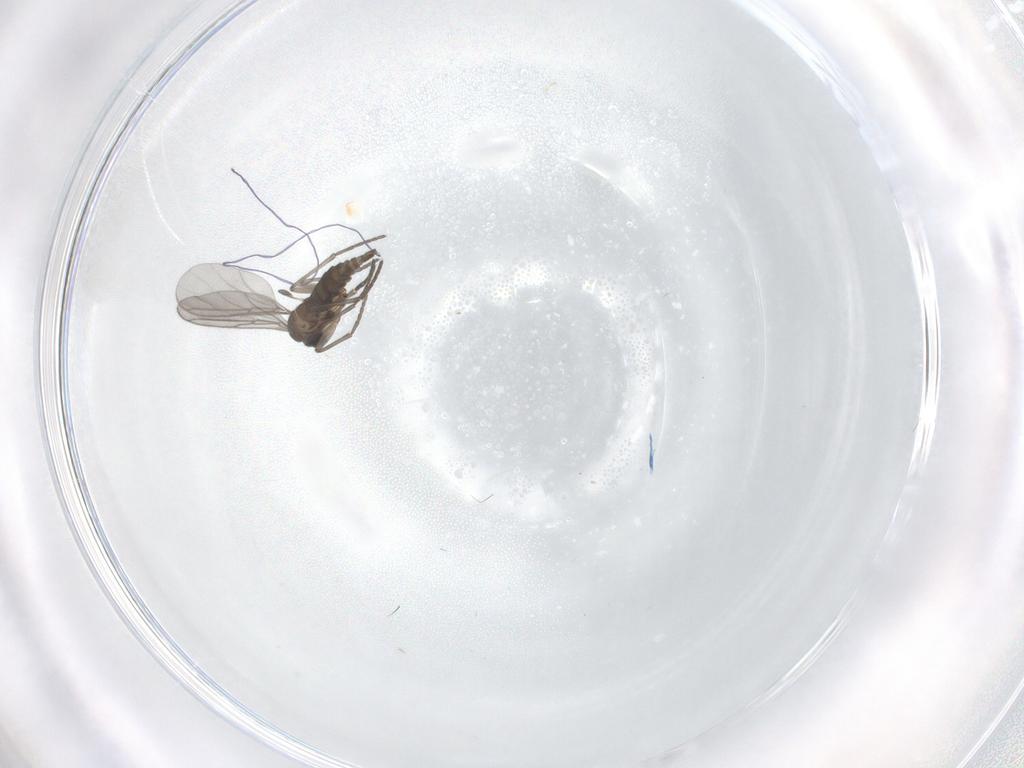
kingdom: Animalia
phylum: Arthropoda
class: Insecta
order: Diptera
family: Sciaridae
